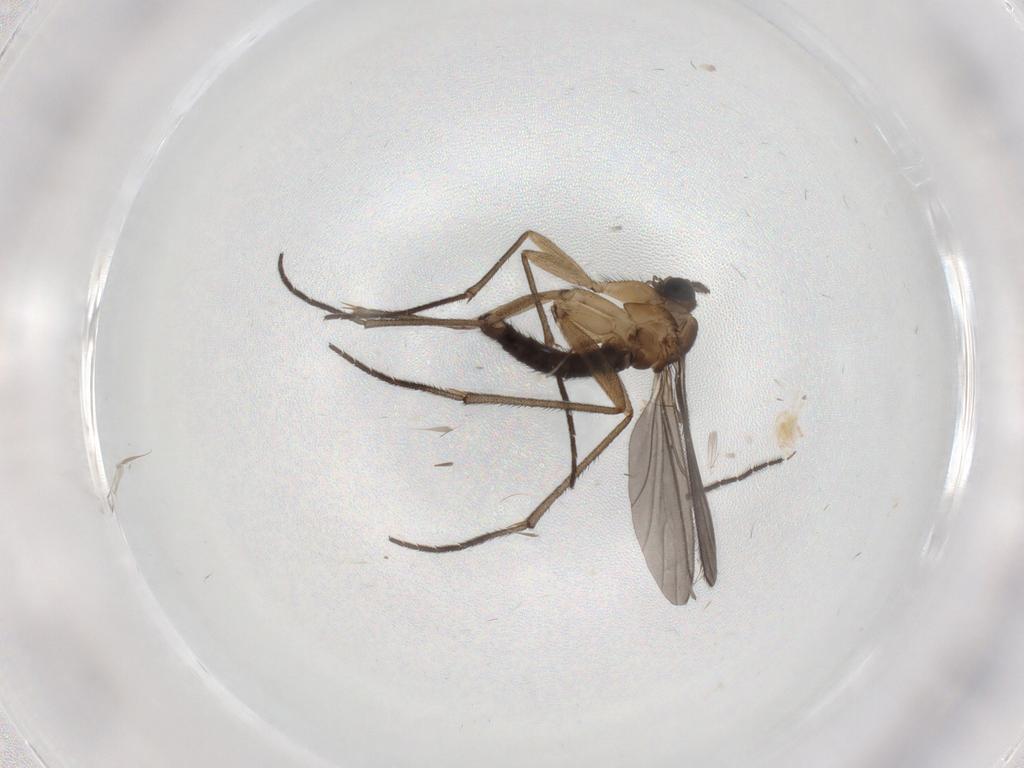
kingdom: Animalia
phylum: Arthropoda
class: Insecta
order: Diptera
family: Sciaridae
